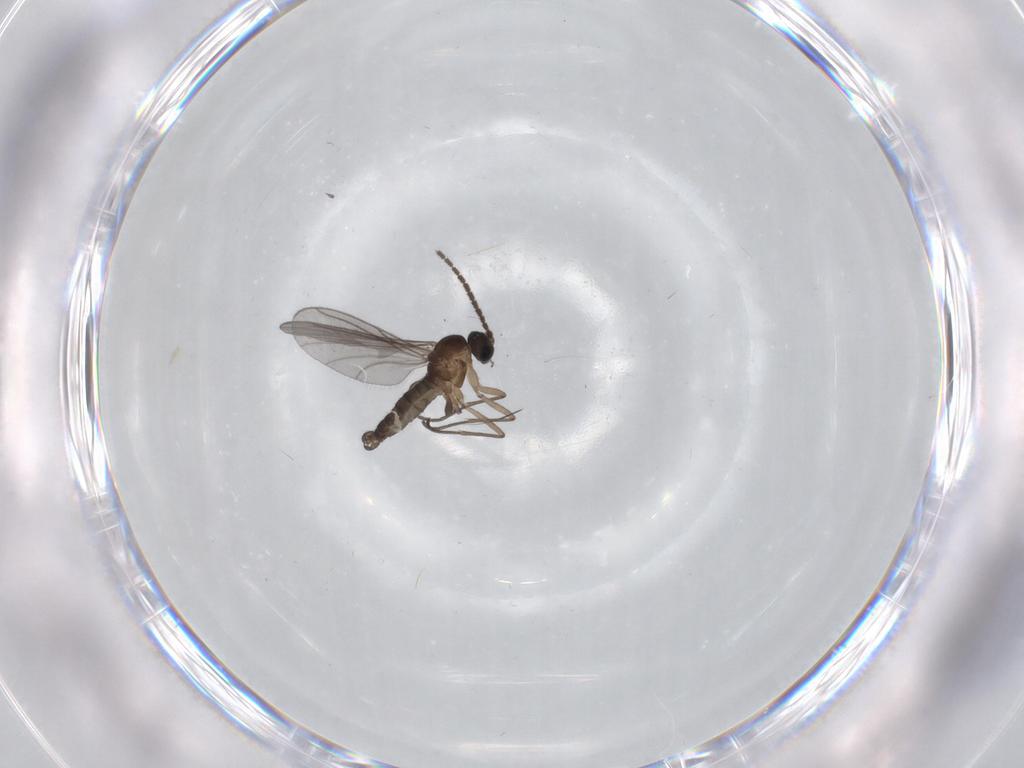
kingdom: Animalia
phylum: Arthropoda
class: Insecta
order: Diptera
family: Sciaridae
